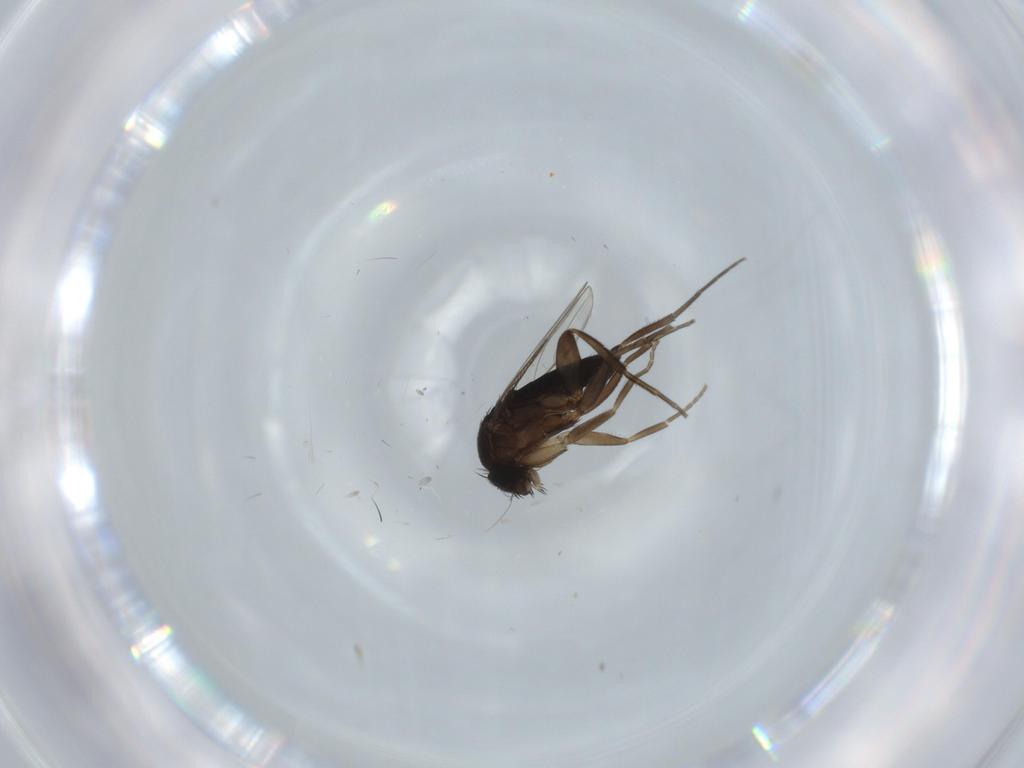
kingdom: Animalia
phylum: Arthropoda
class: Insecta
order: Diptera
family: Phoridae
